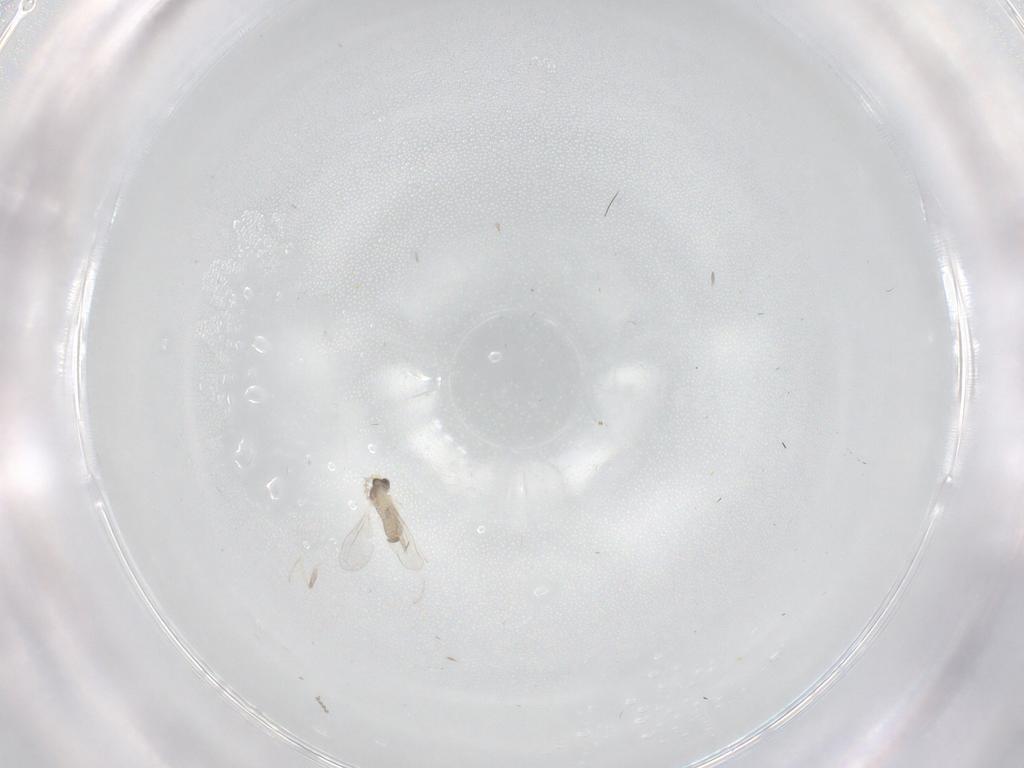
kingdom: Animalia
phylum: Arthropoda
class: Insecta
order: Diptera
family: Cecidomyiidae
